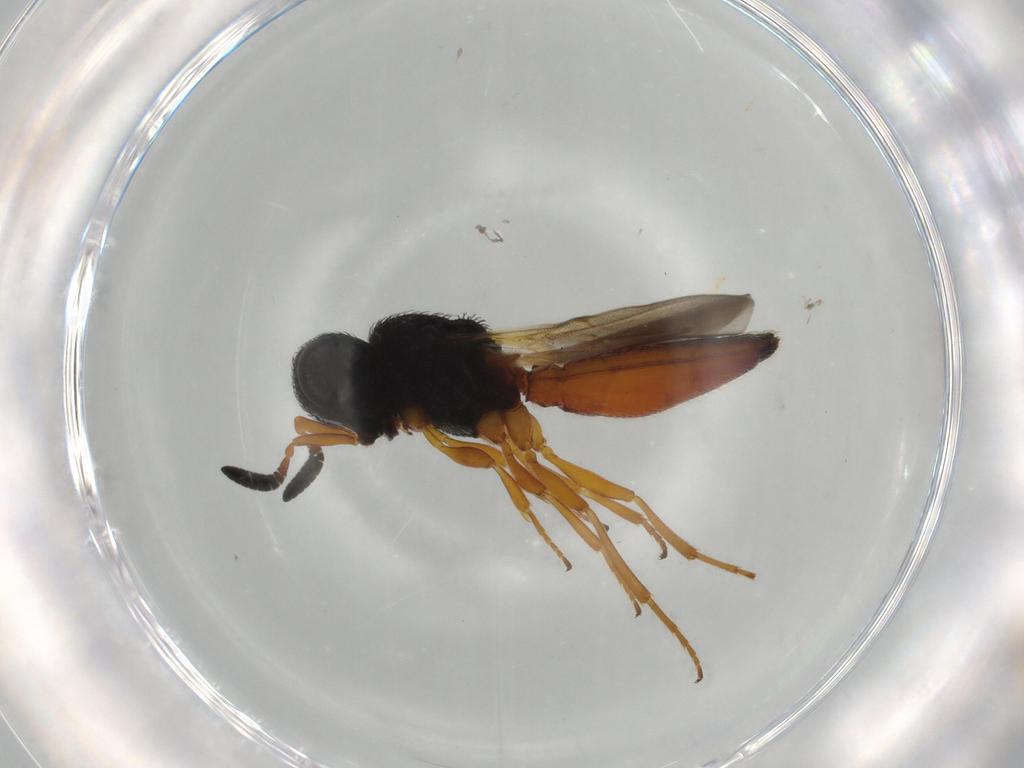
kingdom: Animalia
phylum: Arthropoda
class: Insecta
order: Hymenoptera
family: Scelionidae
